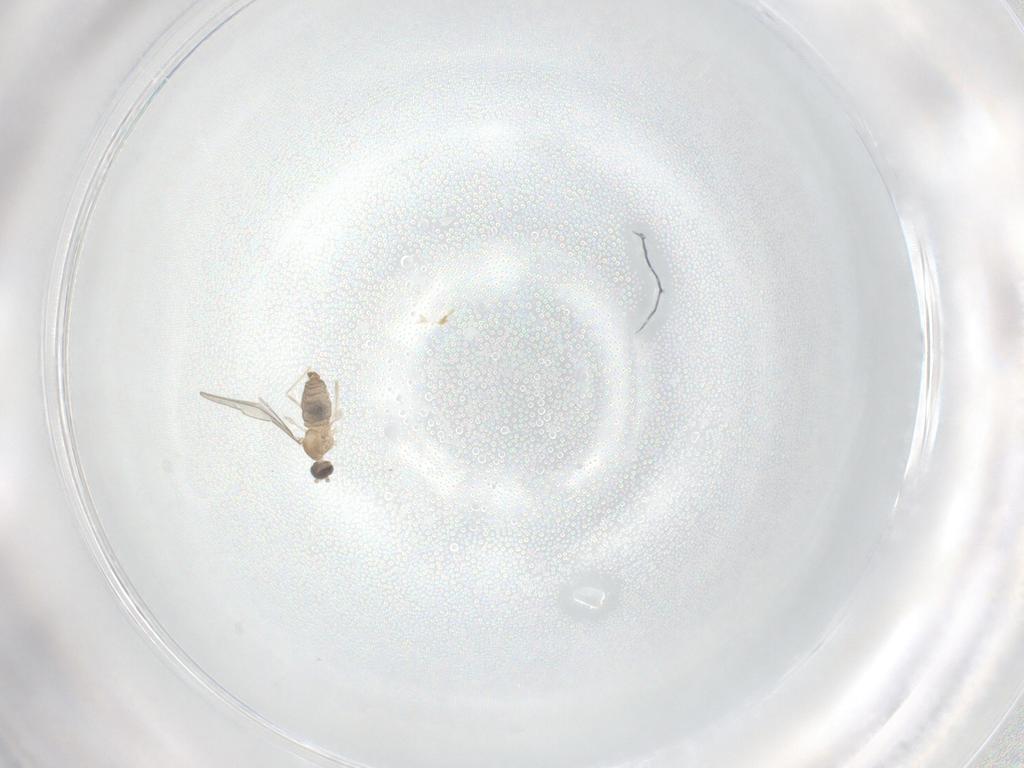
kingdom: Animalia
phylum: Arthropoda
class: Insecta
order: Diptera
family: Cecidomyiidae
